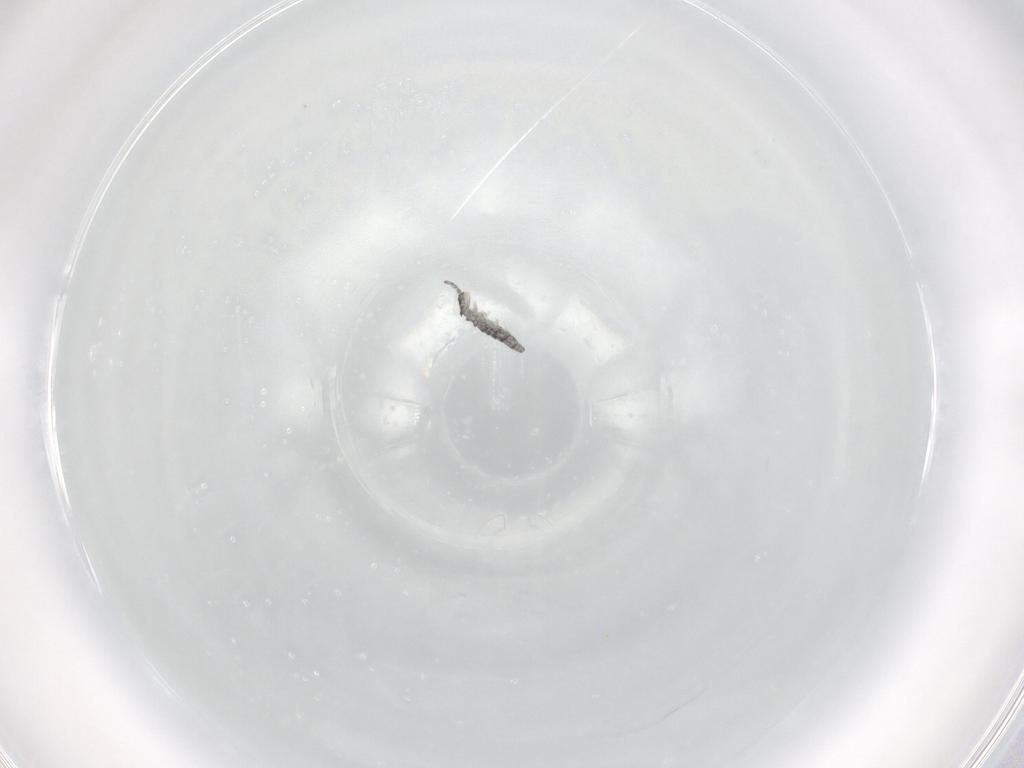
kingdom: Animalia
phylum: Arthropoda
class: Collembola
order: Entomobryomorpha
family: Isotomidae
